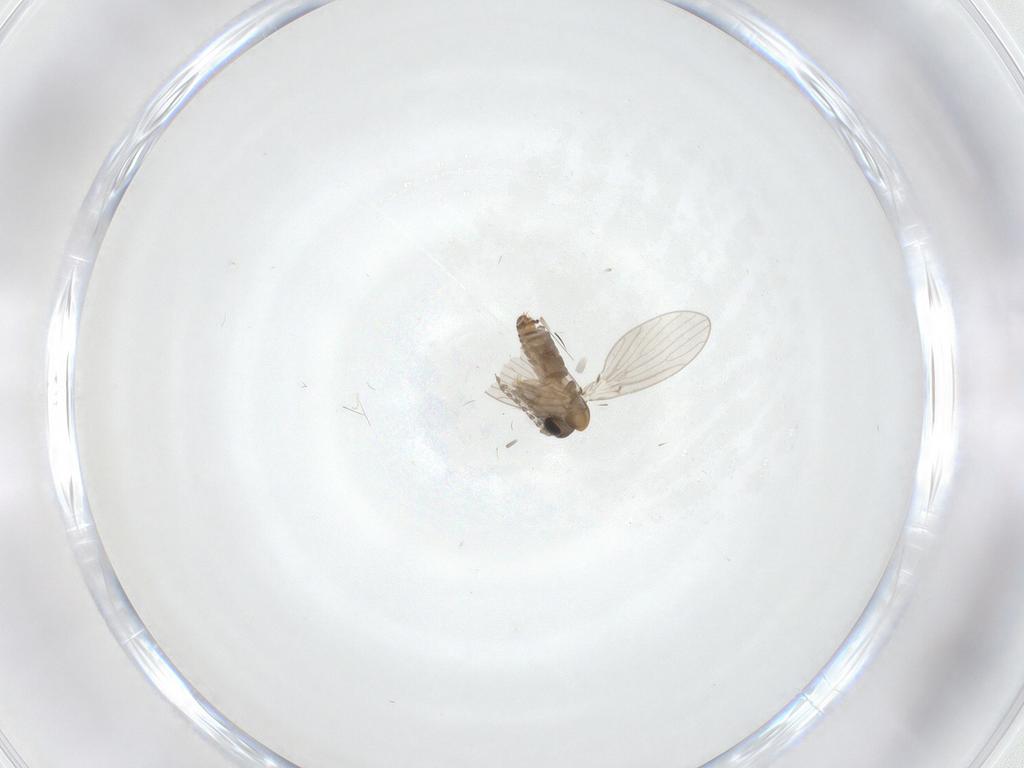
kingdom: Animalia
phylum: Arthropoda
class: Insecta
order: Diptera
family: Psychodidae
